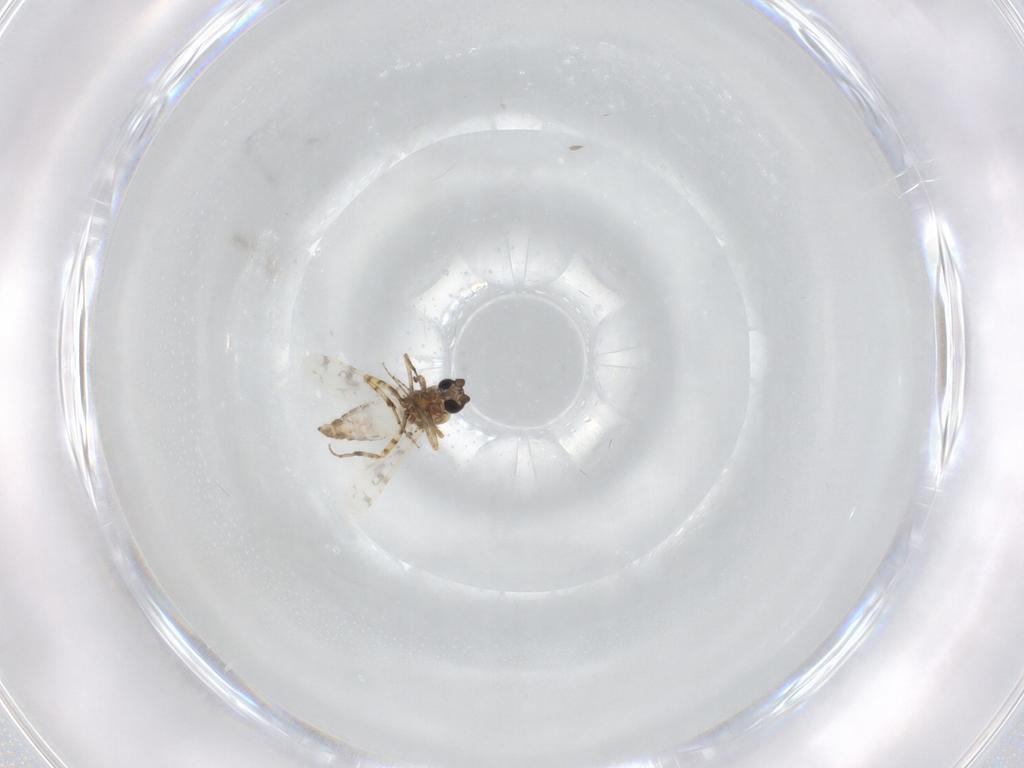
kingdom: Animalia
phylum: Arthropoda
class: Insecta
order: Diptera
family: Ceratopogonidae
